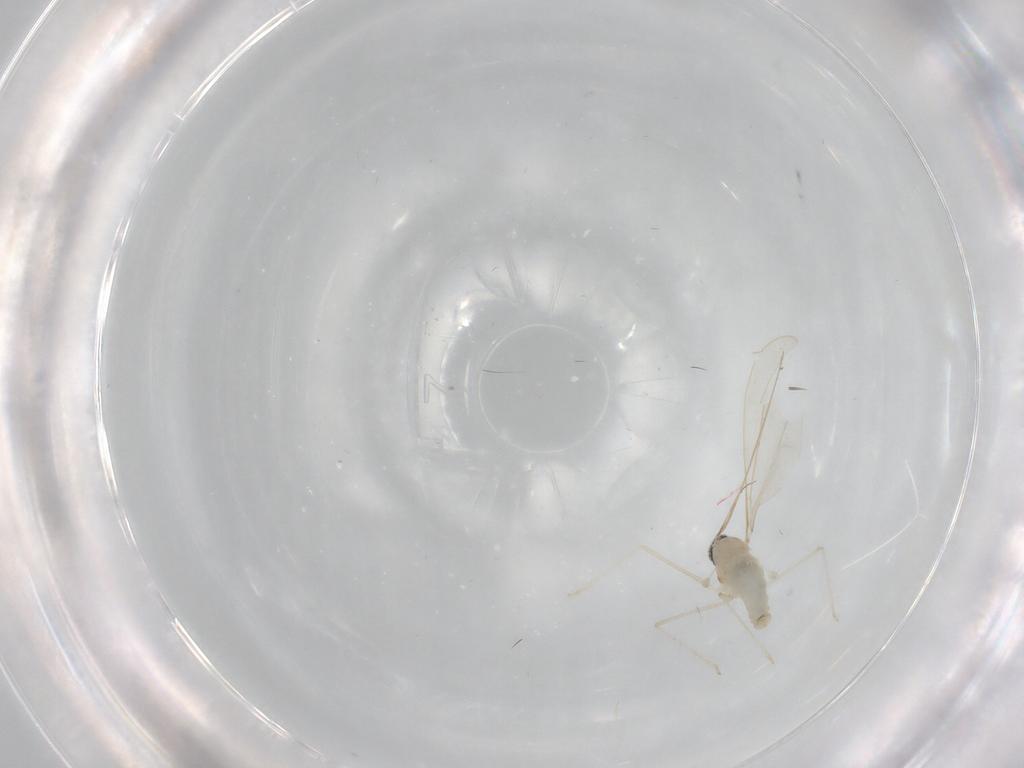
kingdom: Animalia
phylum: Arthropoda
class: Insecta
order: Diptera
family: Cecidomyiidae
